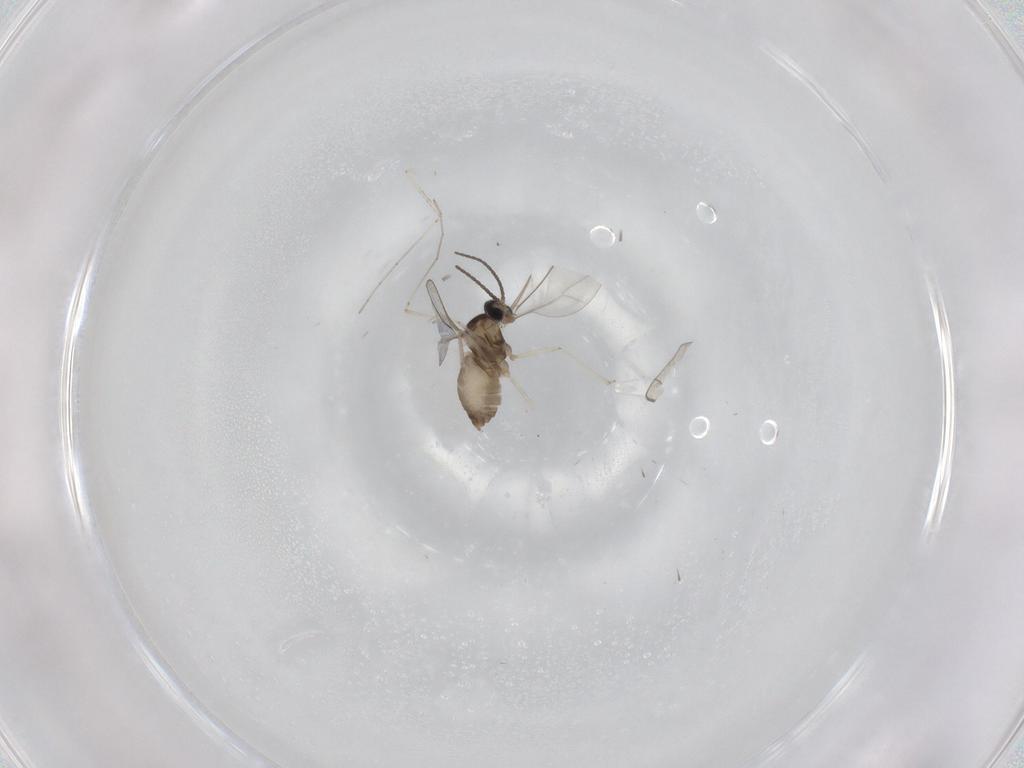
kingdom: Animalia
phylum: Arthropoda
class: Insecta
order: Diptera
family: Cecidomyiidae
